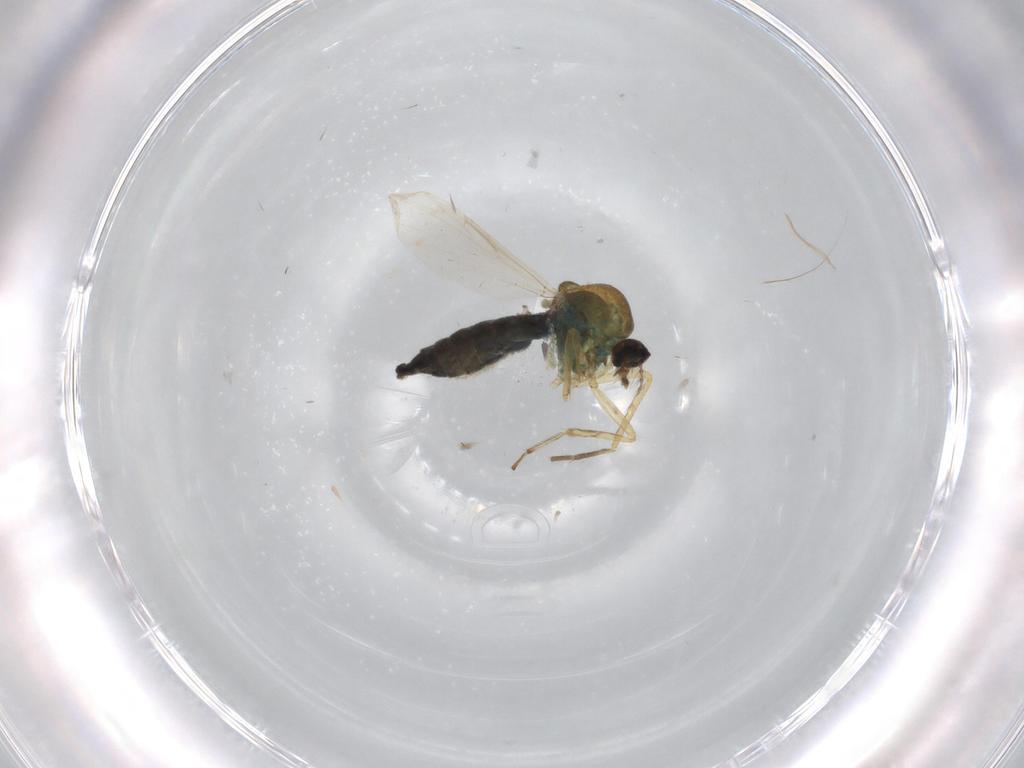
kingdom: Animalia
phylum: Arthropoda
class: Insecta
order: Diptera
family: Ceratopogonidae
